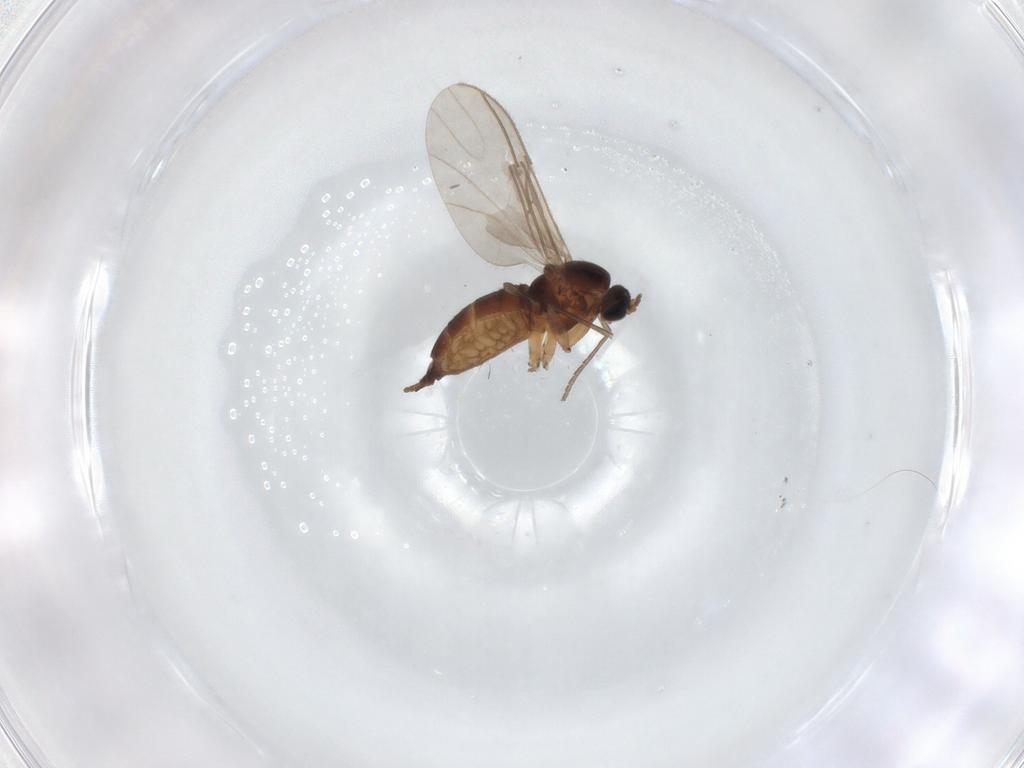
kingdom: Animalia
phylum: Arthropoda
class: Insecta
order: Diptera
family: Sciaridae
